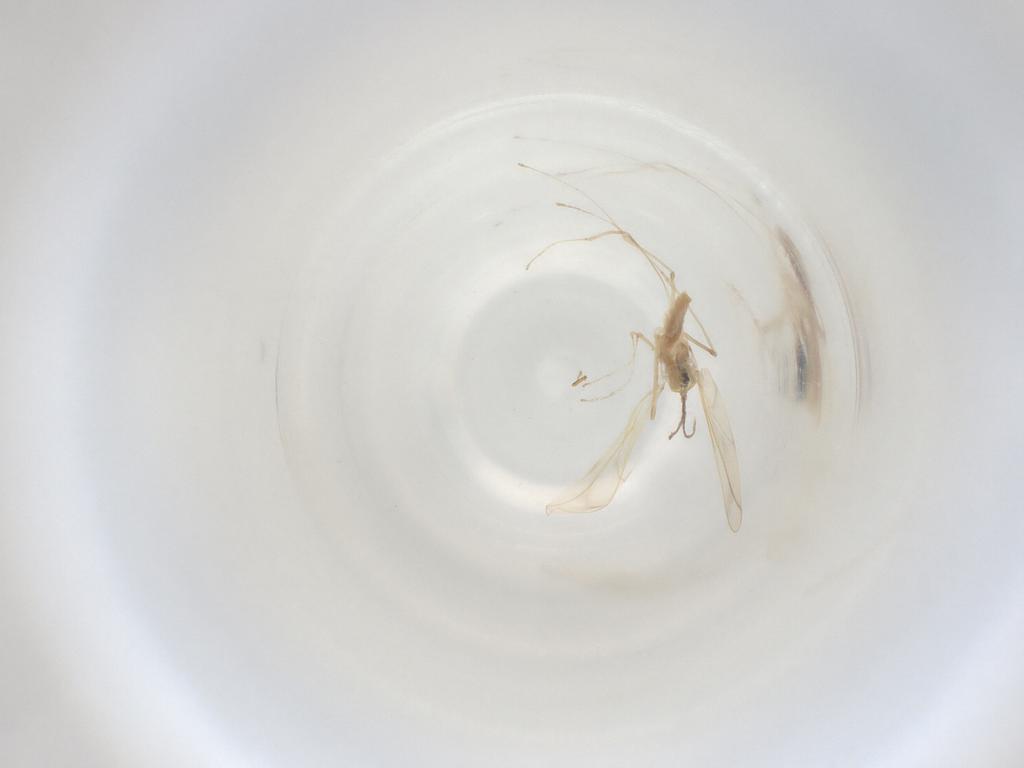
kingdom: Animalia
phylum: Arthropoda
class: Insecta
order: Diptera
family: Cecidomyiidae
